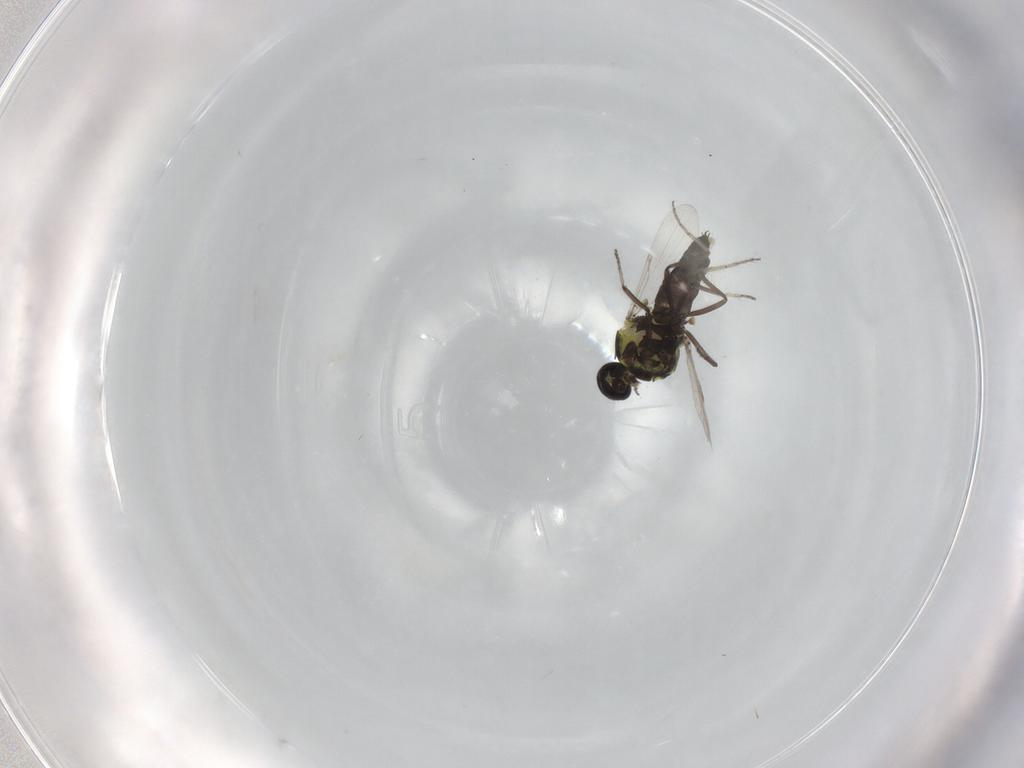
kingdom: Animalia
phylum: Arthropoda
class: Insecta
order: Diptera
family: Ceratopogonidae
